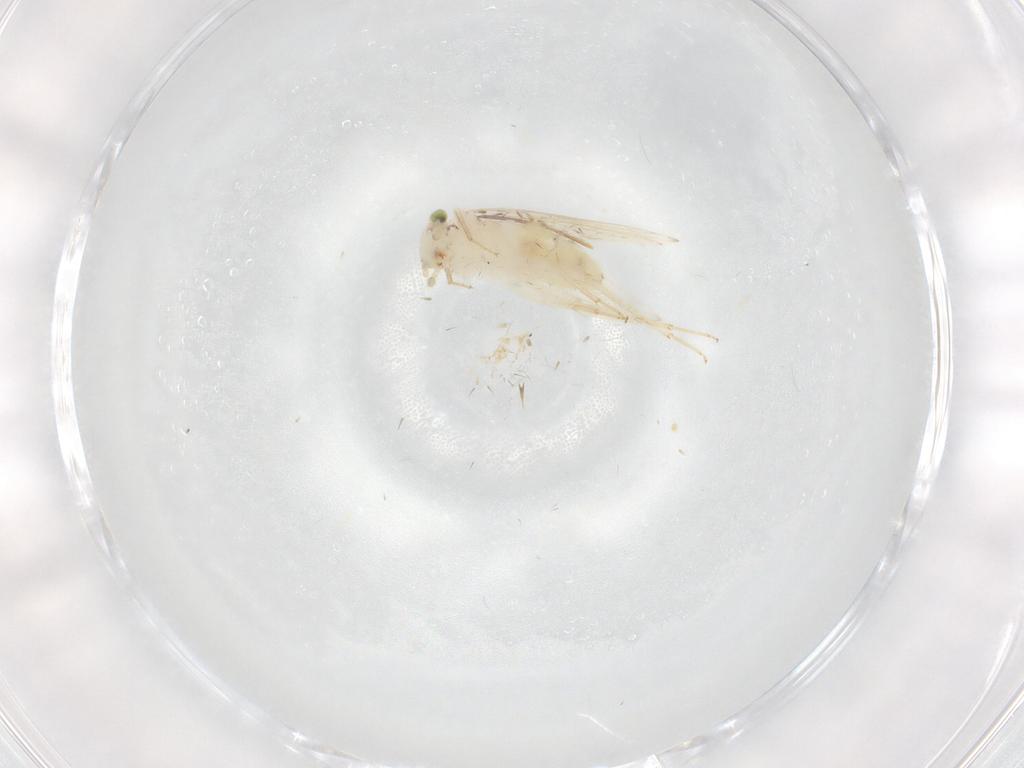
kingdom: Animalia
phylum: Arthropoda
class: Insecta
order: Psocodea
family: Lepidopsocidae
